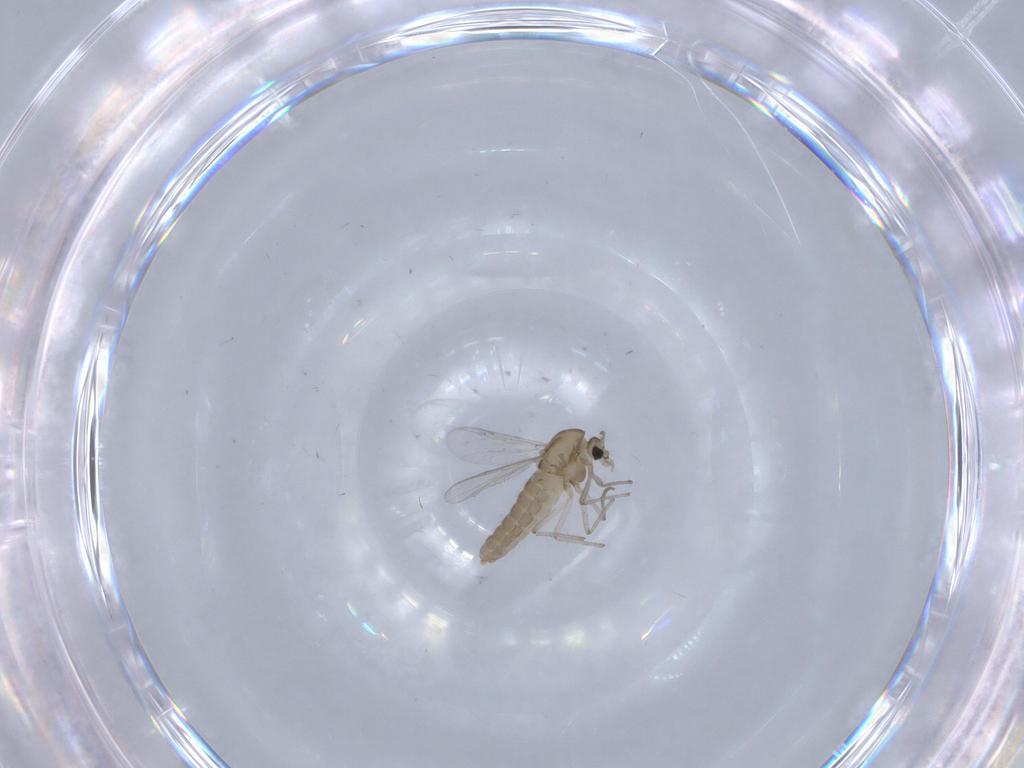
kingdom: Animalia
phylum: Arthropoda
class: Insecta
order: Diptera
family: Chironomidae
